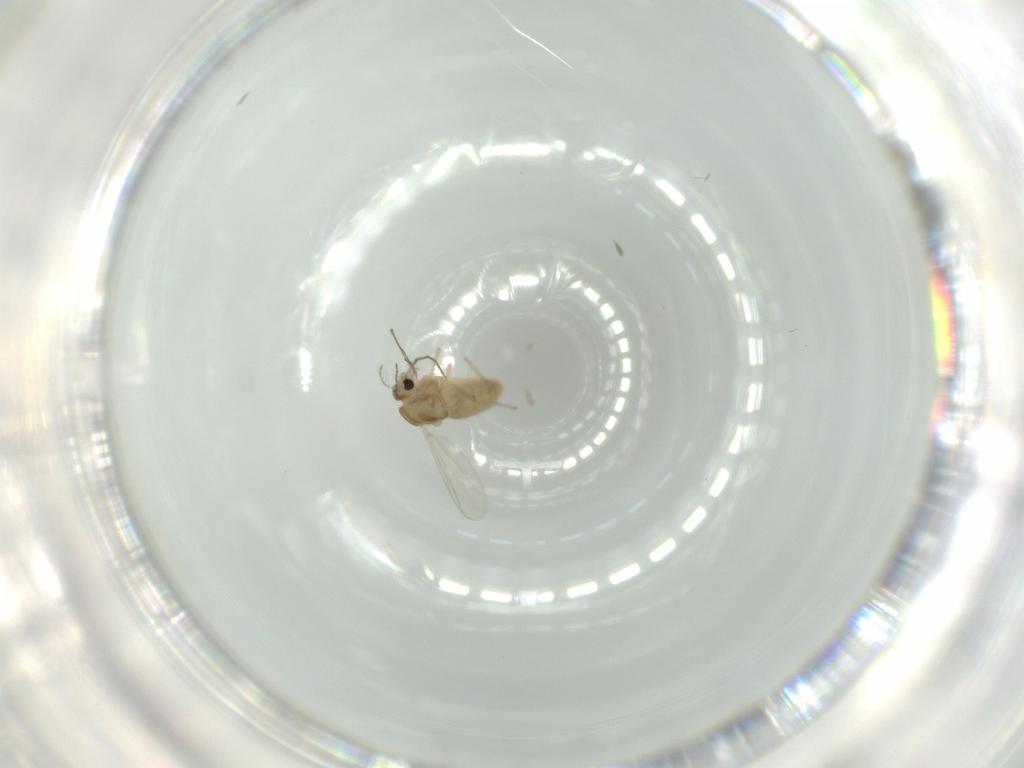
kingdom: Animalia
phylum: Arthropoda
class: Insecta
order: Diptera
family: Chironomidae
